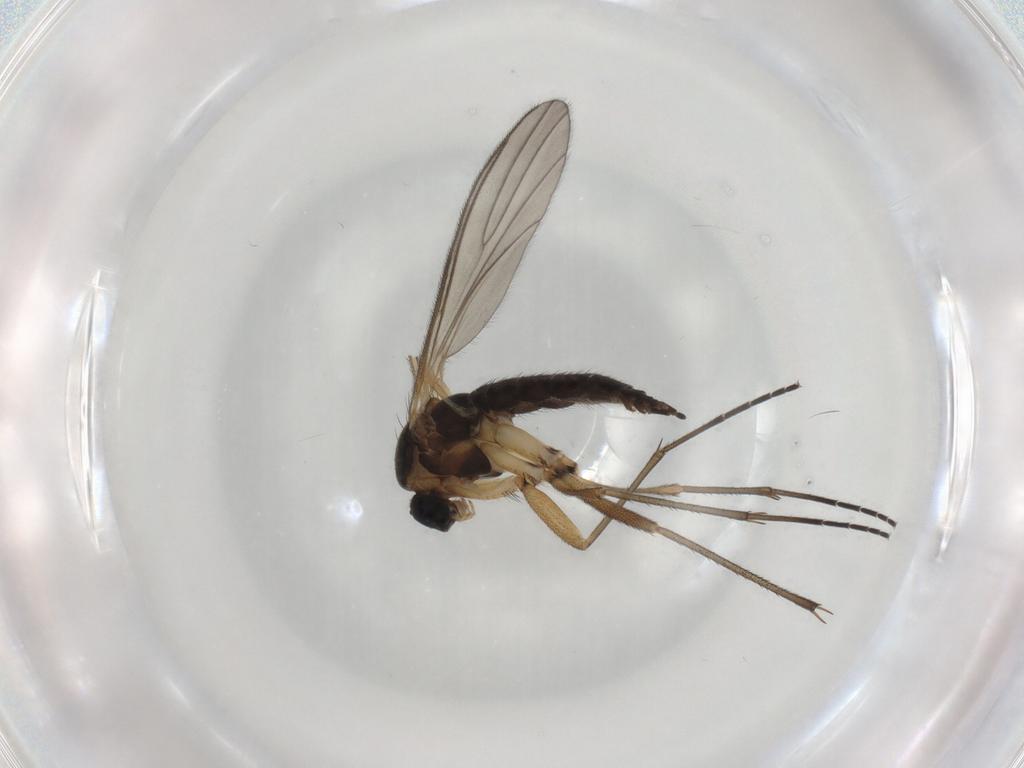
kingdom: Animalia
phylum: Arthropoda
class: Insecta
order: Diptera
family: Sciaridae
